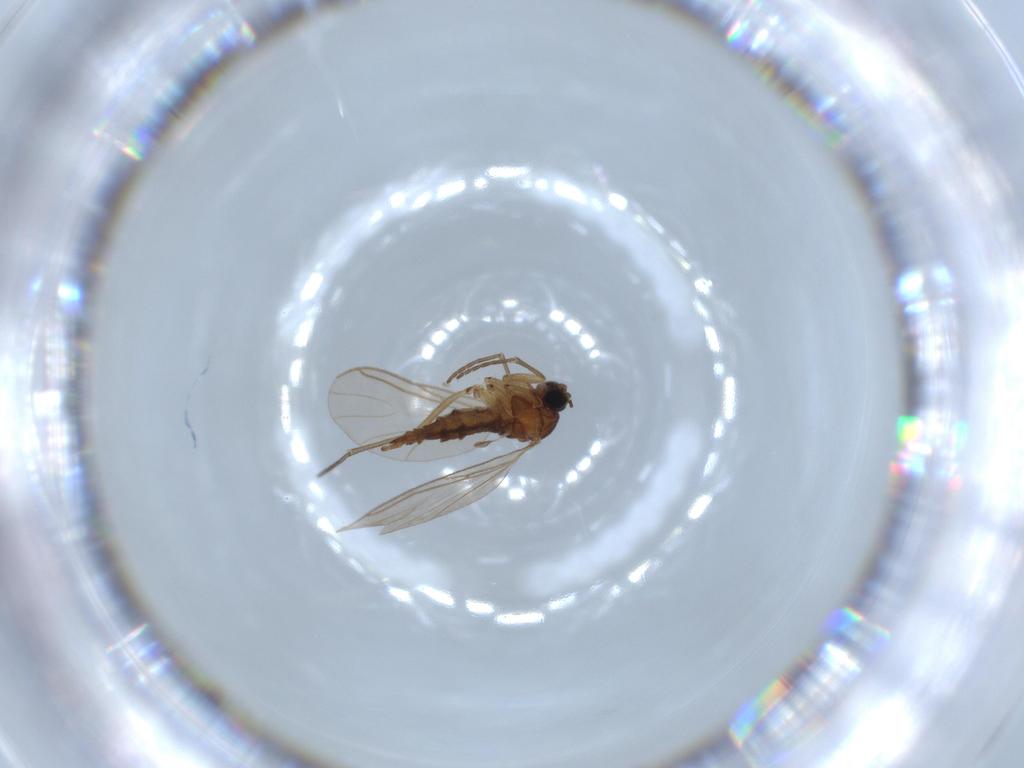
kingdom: Animalia
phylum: Arthropoda
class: Insecta
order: Diptera
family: Sciaridae
